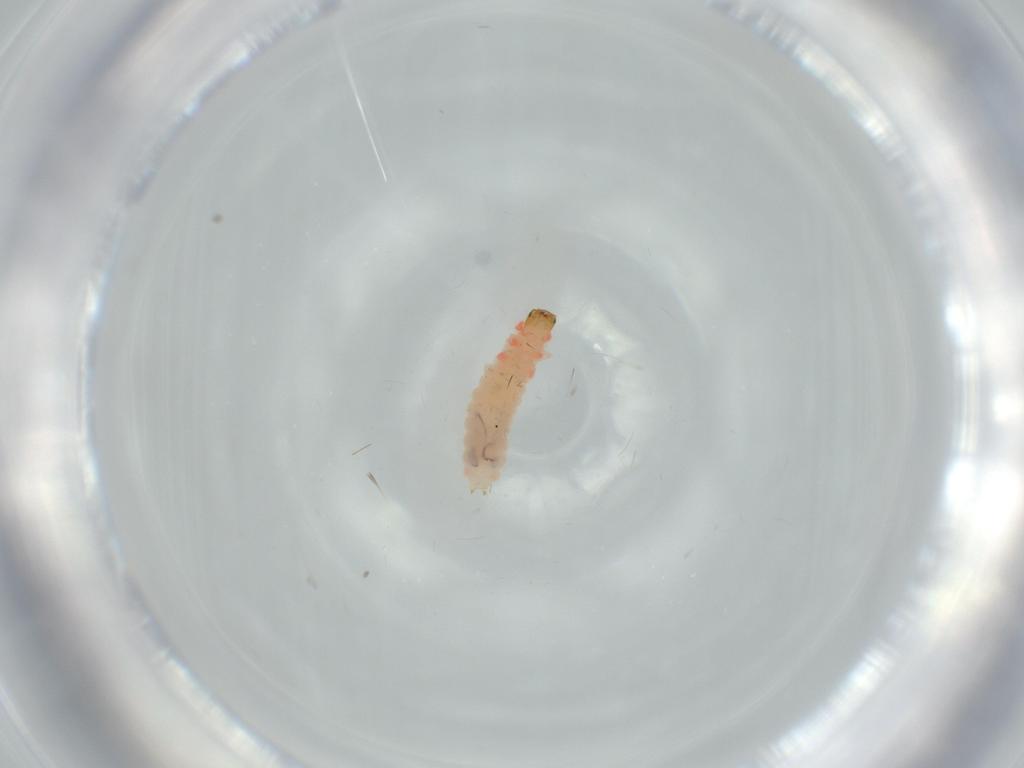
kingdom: Animalia
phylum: Arthropoda
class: Insecta
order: Coleoptera
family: Melyridae
